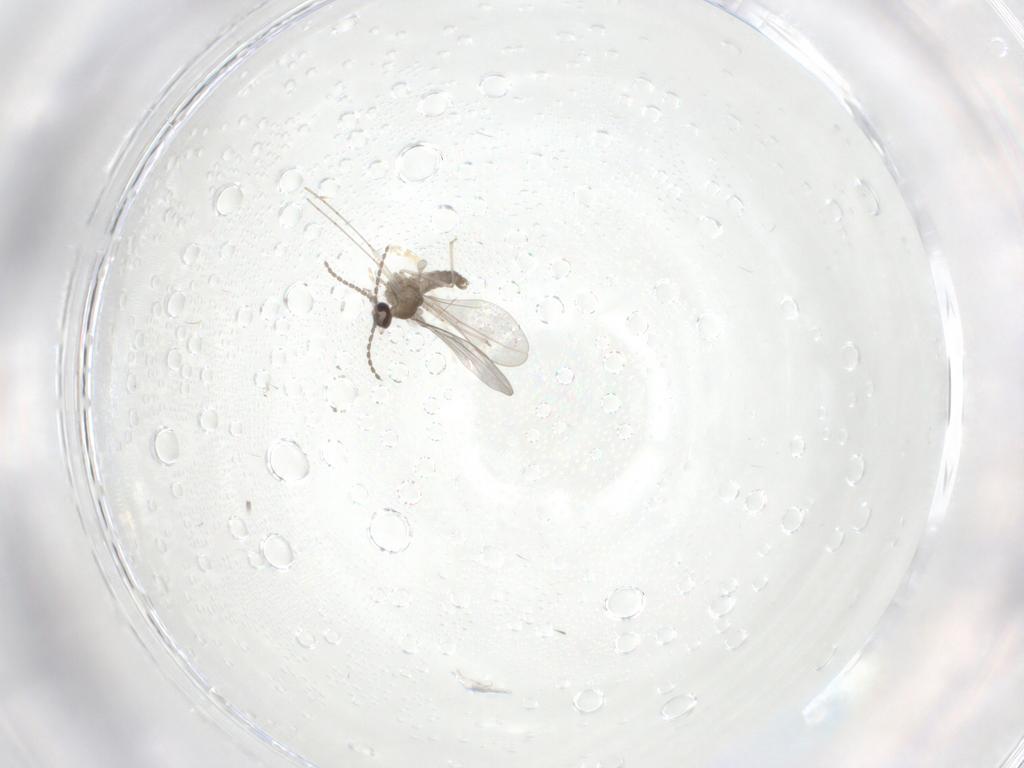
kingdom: Animalia
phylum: Arthropoda
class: Insecta
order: Diptera
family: Cecidomyiidae
